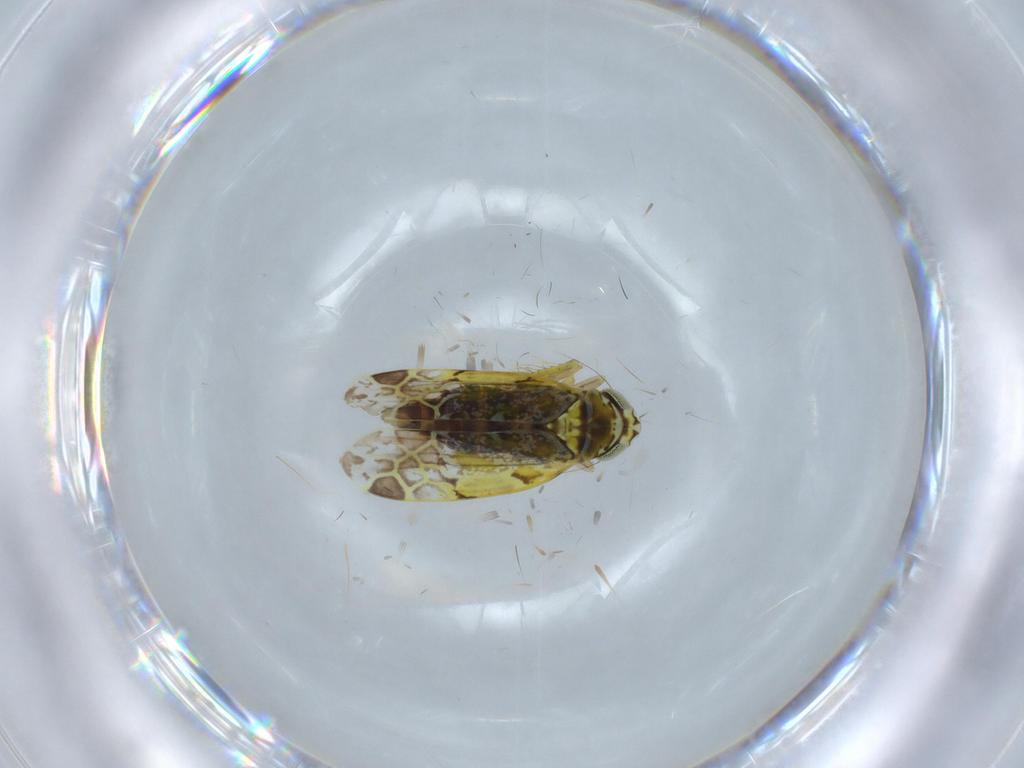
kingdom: Animalia
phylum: Arthropoda
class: Insecta
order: Hemiptera
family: Cicadellidae
